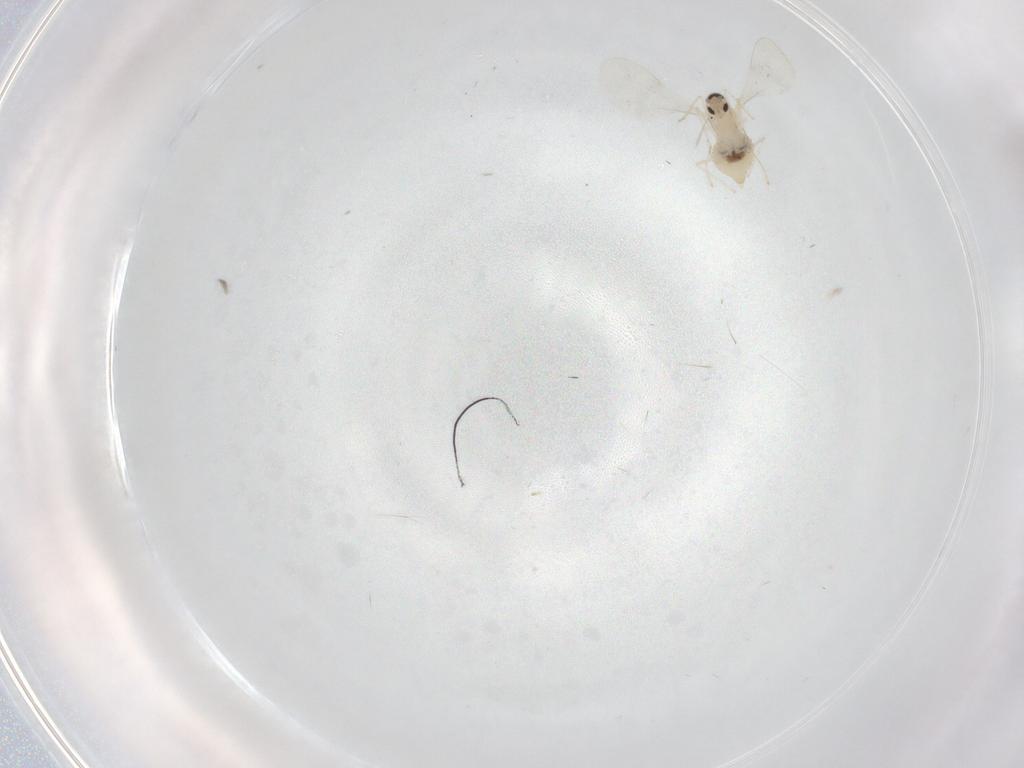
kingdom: Animalia
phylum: Arthropoda
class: Insecta
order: Diptera
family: Cecidomyiidae
